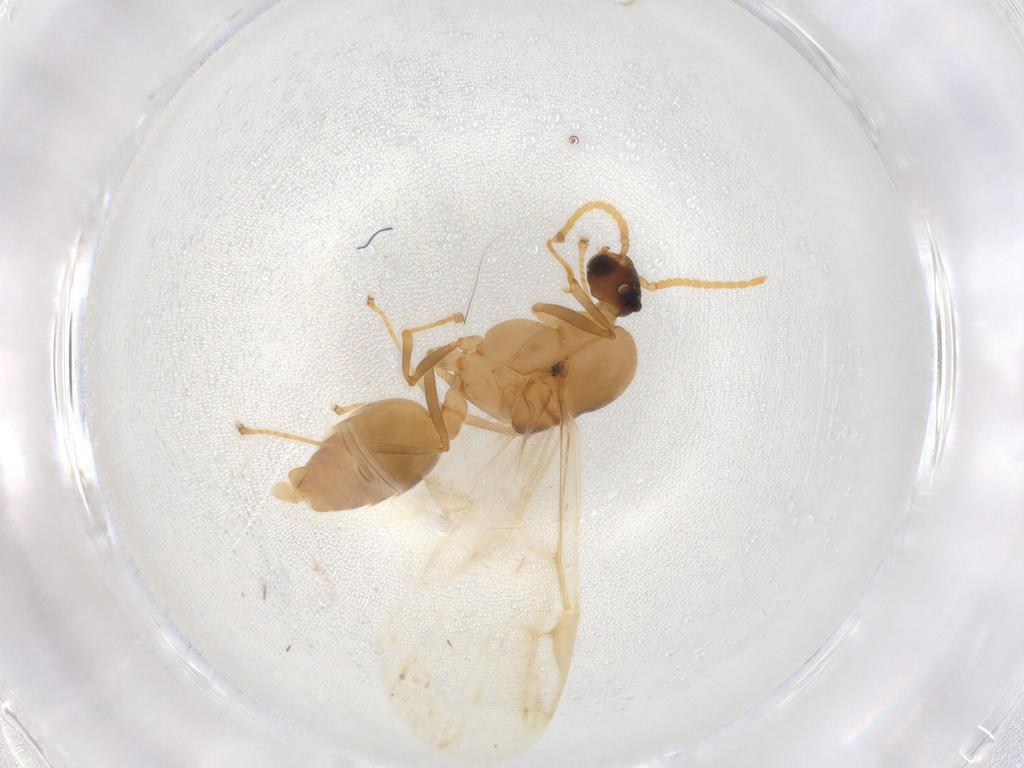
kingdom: Animalia
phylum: Arthropoda
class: Insecta
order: Hymenoptera
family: Formicidae
